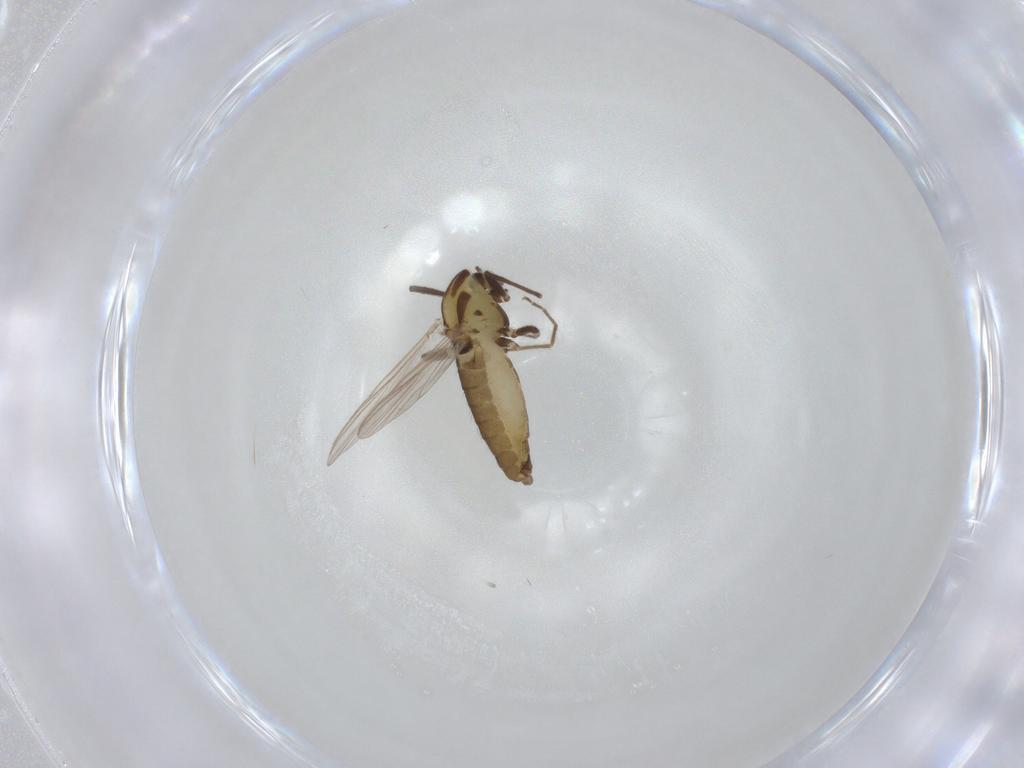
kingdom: Animalia
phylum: Arthropoda
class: Insecta
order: Diptera
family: Chironomidae
